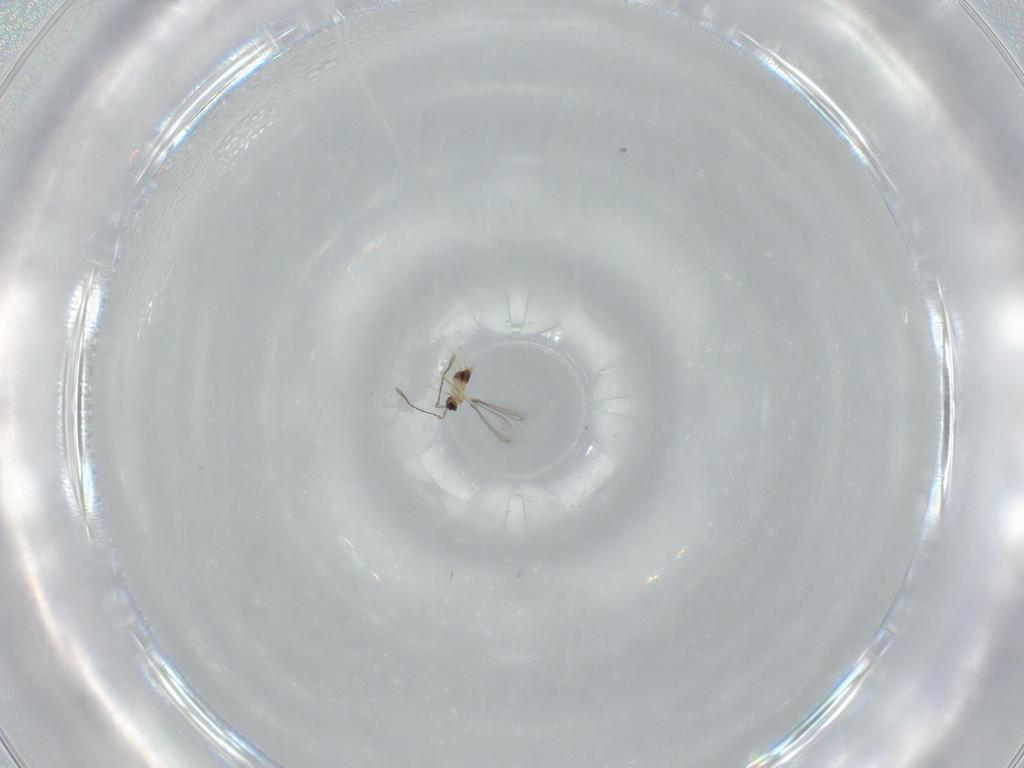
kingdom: Animalia
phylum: Arthropoda
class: Insecta
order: Hymenoptera
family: Mymaridae
